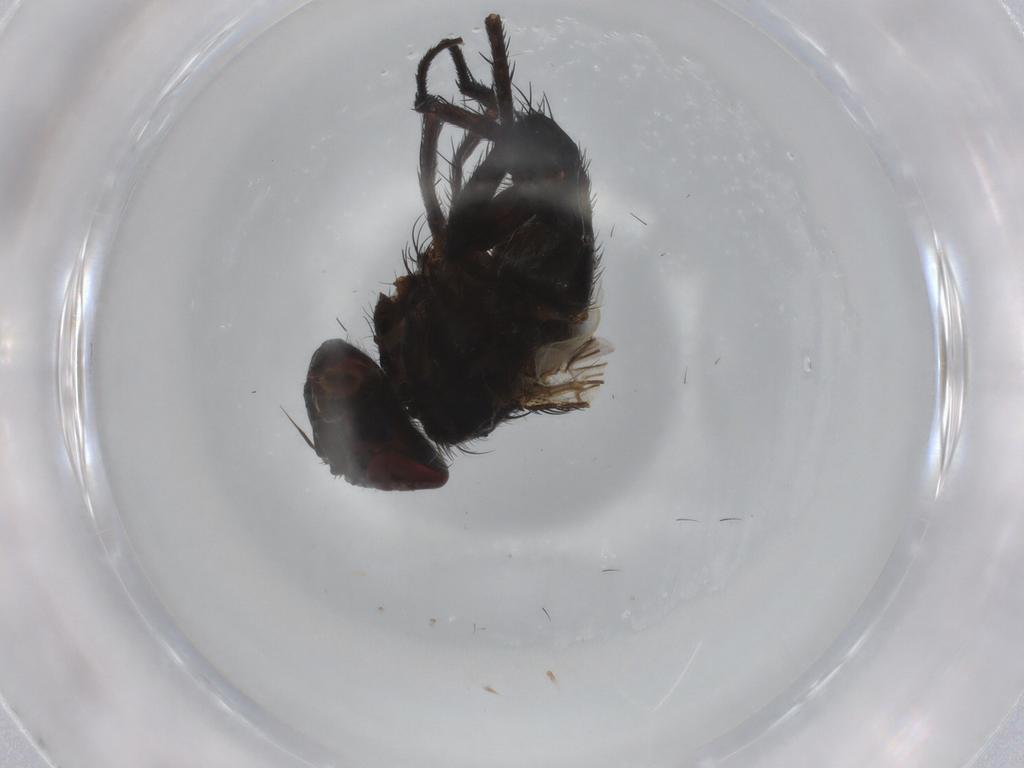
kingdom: Animalia
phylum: Arthropoda
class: Insecta
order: Diptera
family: Tachinidae
